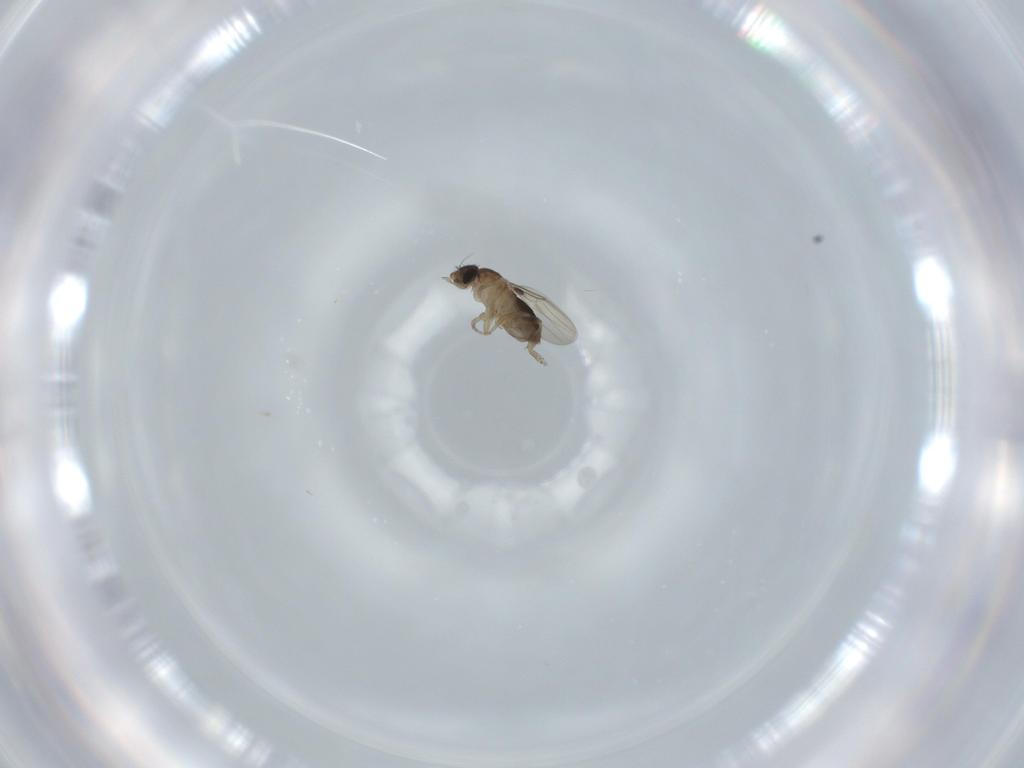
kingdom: Animalia
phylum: Arthropoda
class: Insecta
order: Diptera
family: Phoridae
